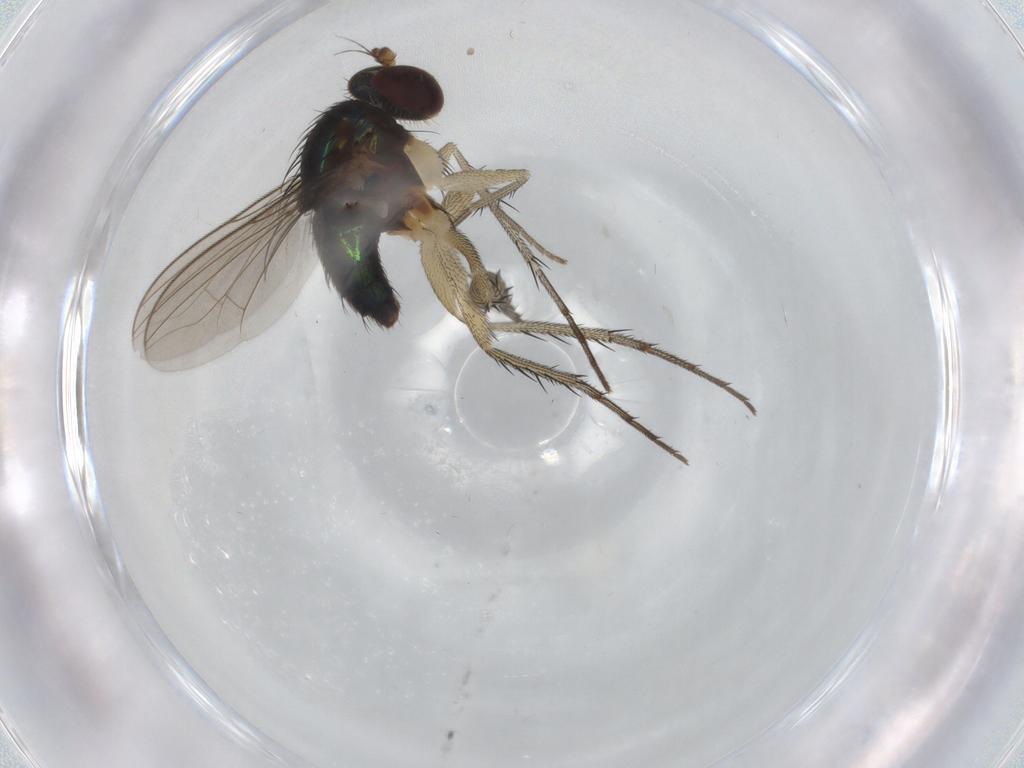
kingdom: Animalia
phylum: Arthropoda
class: Insecta
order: Diptera
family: Dolichopodidae
